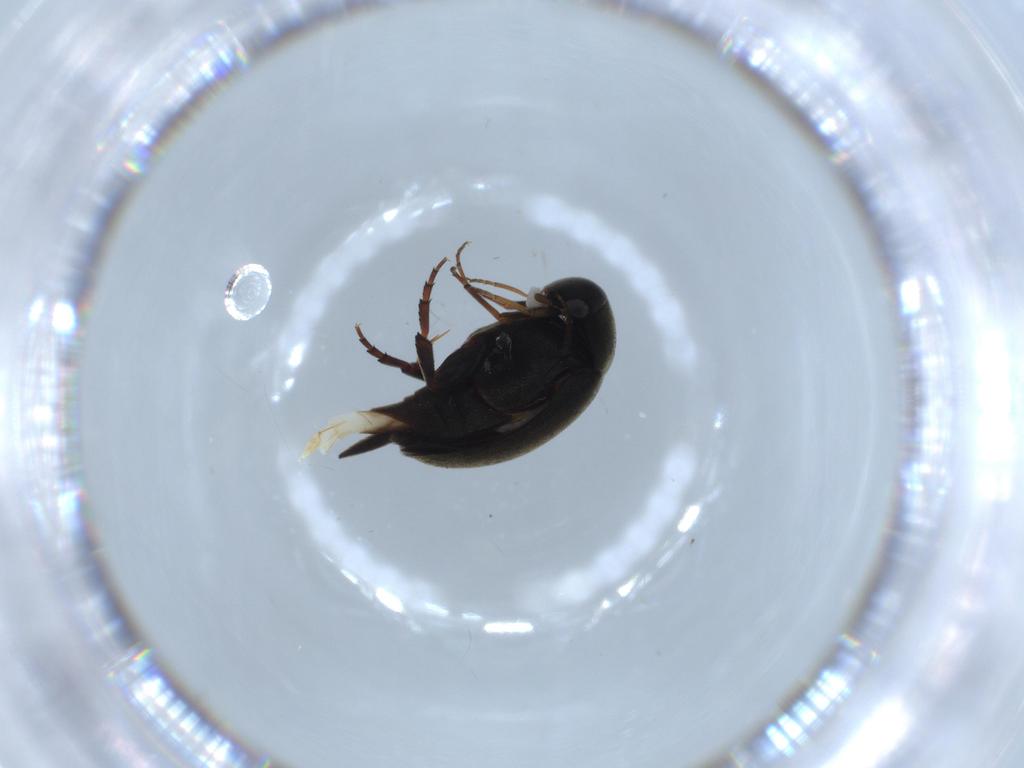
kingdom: Animalia
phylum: Arthropoda
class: Insecta
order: Coleoptera
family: Mordellidae
